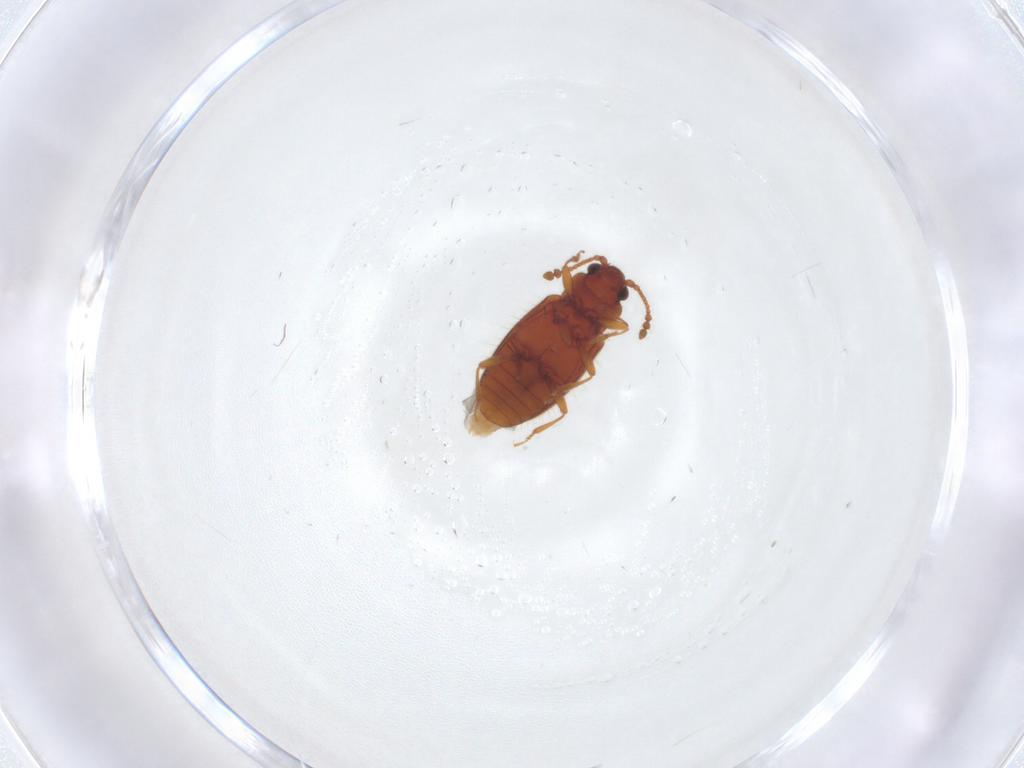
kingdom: Animalia
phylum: Arthropoda
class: Insecta
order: Coleoptera
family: Cryptophagidae
